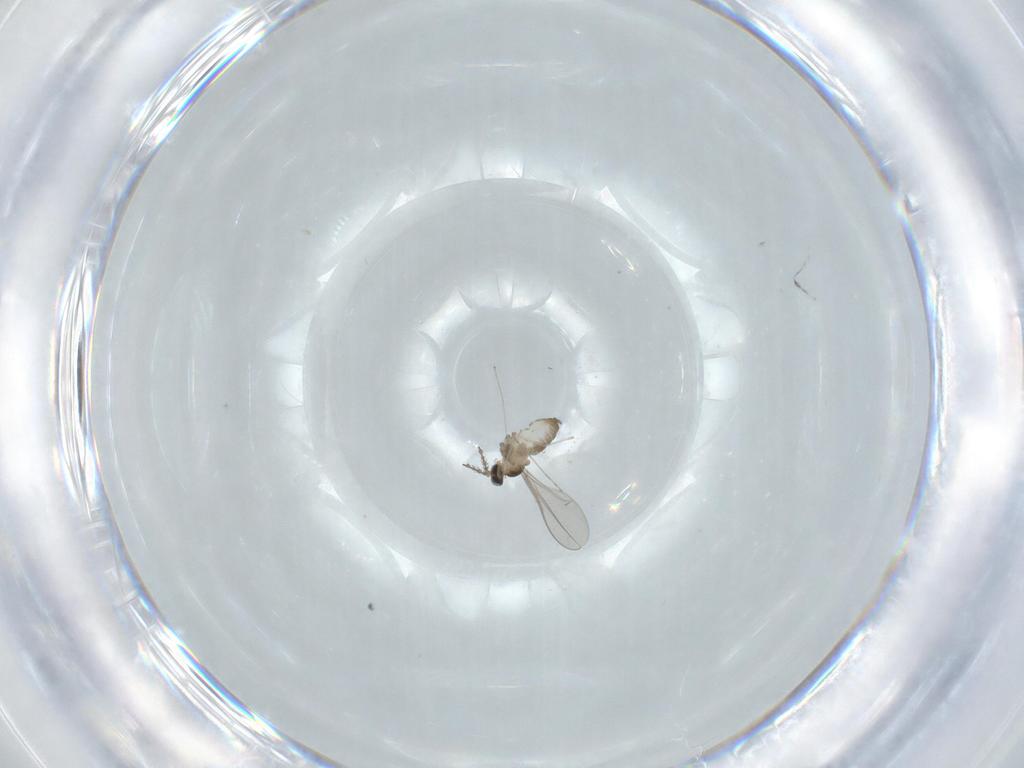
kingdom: Animalia
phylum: Arthropoda
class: Insecta
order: Diptera
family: Cecidomyiidae
